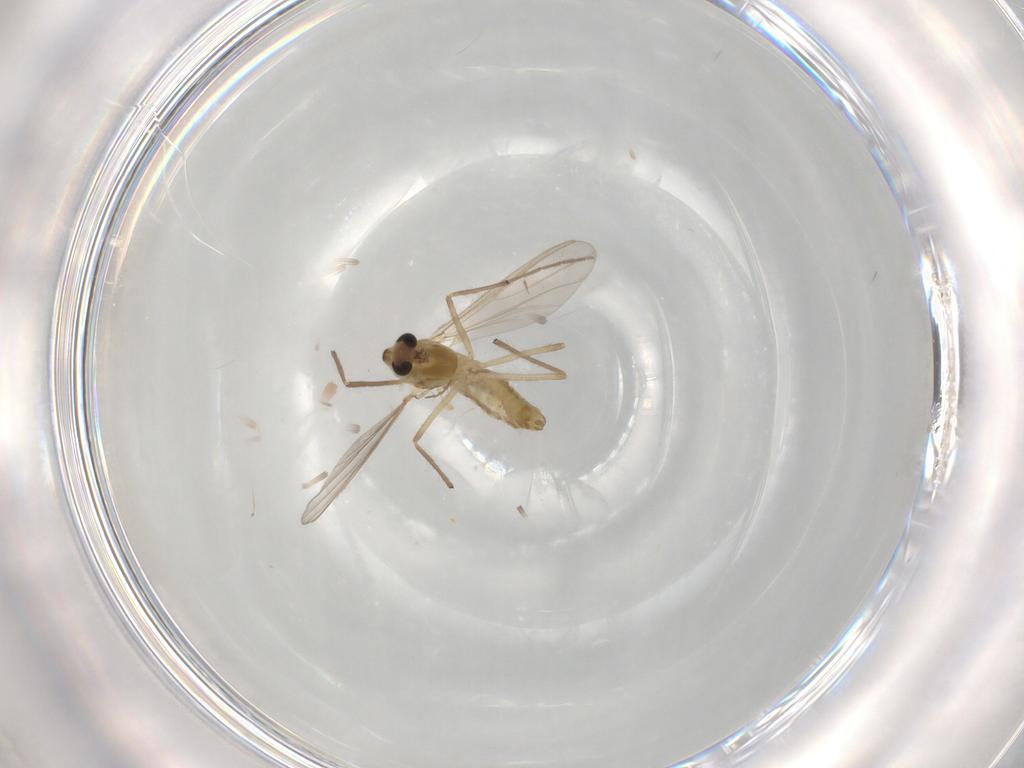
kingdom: Animalia
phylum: Arthropoda
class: Insecta
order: Diptera
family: Chironomidae
